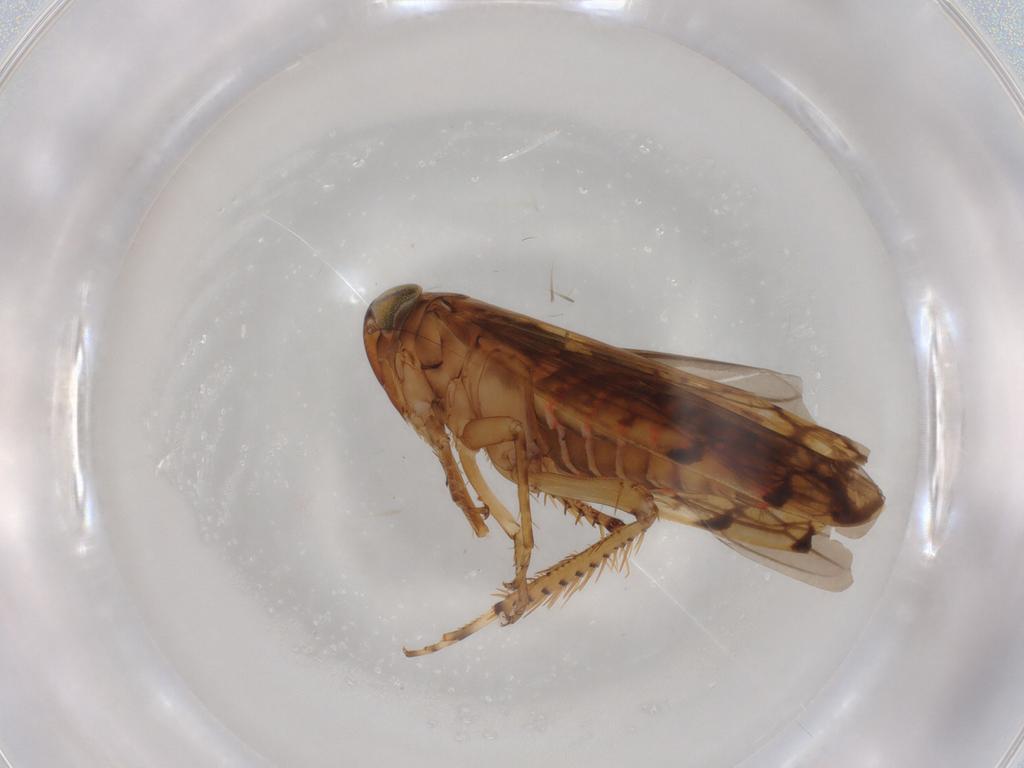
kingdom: Animalia
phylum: Arthropoda
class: Insecta
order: Hemiptera
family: Cicadellidae
